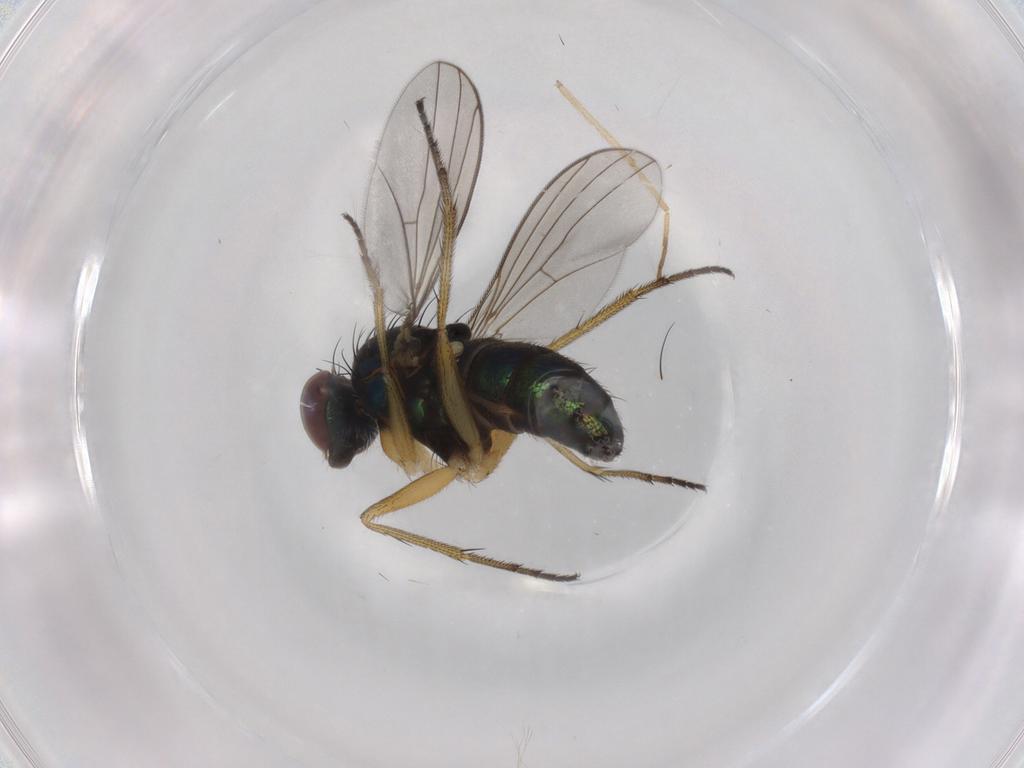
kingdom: Animalia
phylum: Arthropoda
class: Insecta
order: Diptera
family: Dolichopodidae
